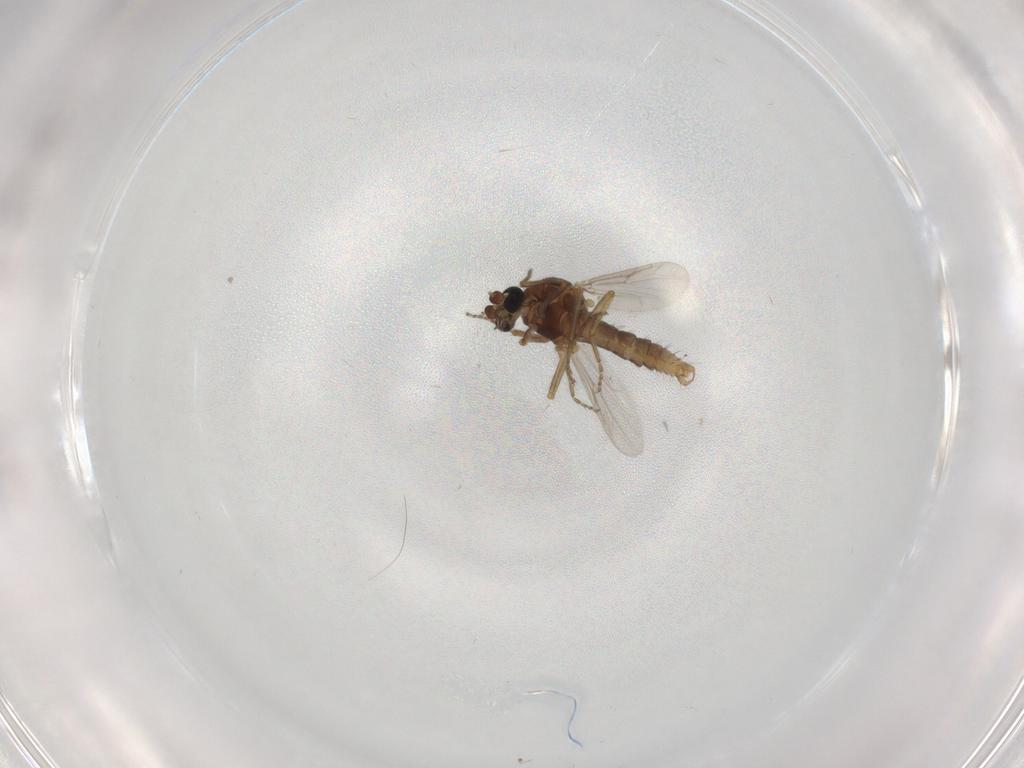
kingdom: Animalia
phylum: Arthropoda
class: Insecta
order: Diptera
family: Ceratopogonidae
